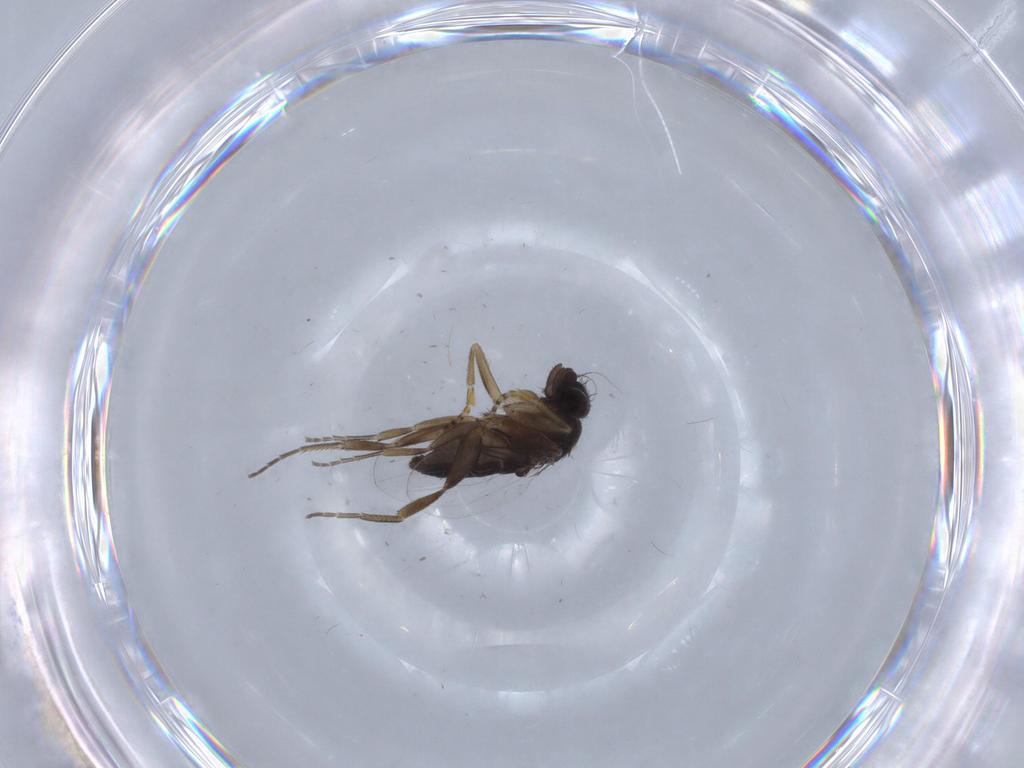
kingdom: Animalia
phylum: Arthropoda
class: Insecta
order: Diptera
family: Phoridae
